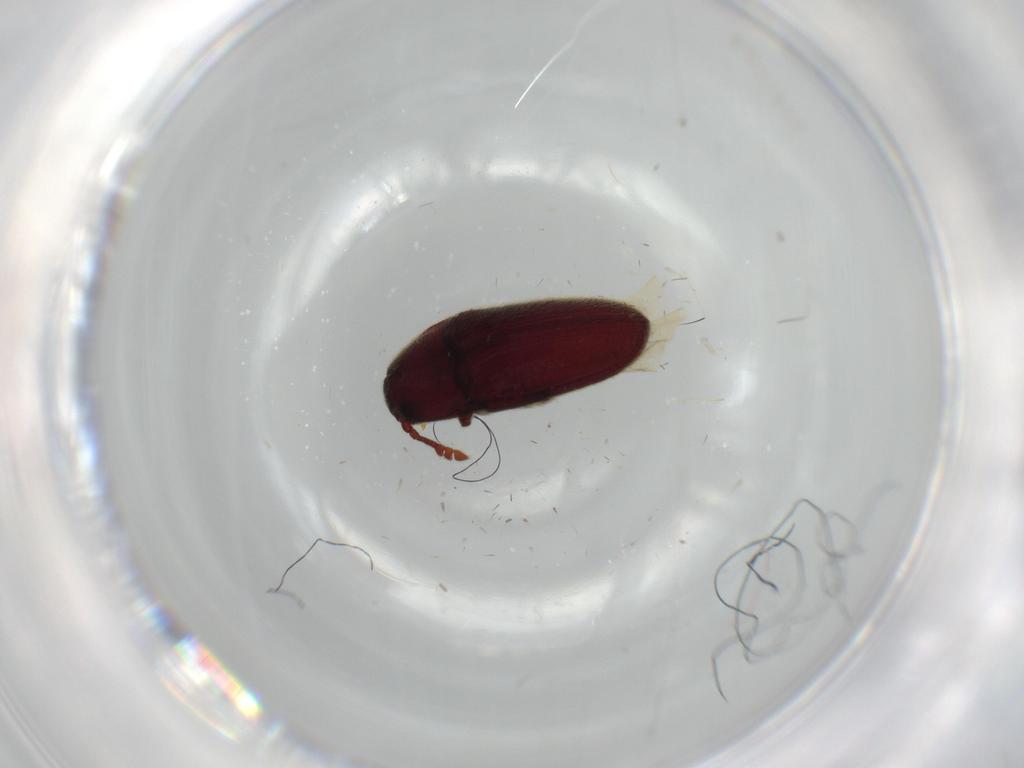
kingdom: Animalia
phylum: Arthropoda
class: Insecta
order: Coleoptera
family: Throscidae
